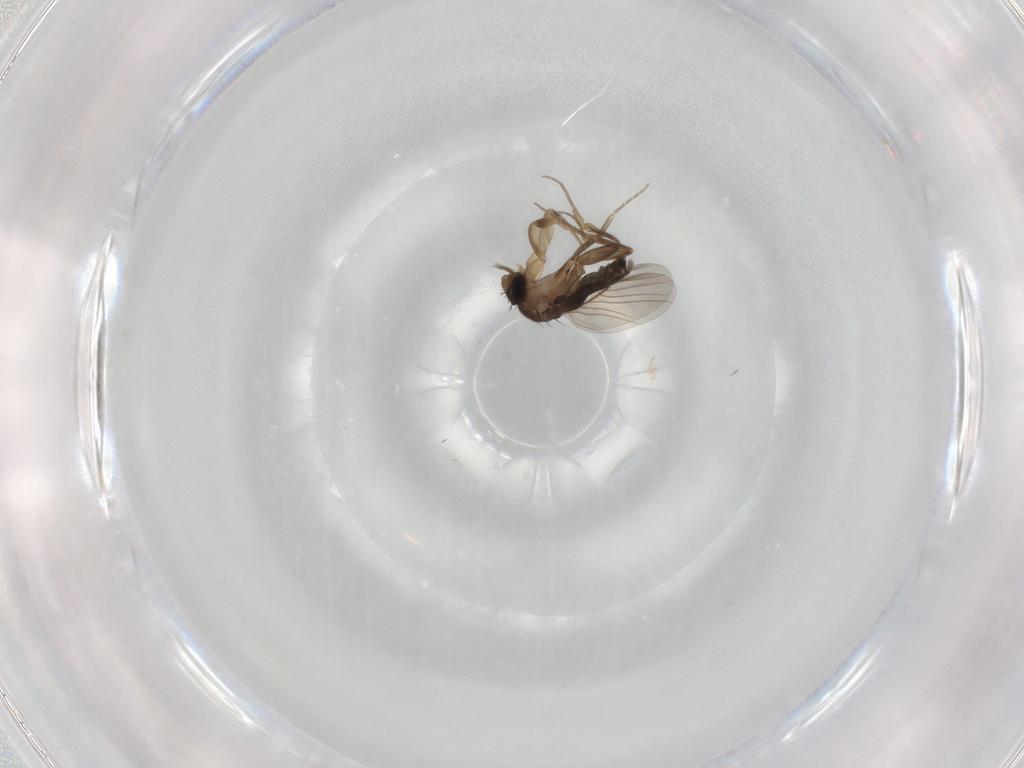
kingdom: Animalia
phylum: Arthropoda
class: Insecta
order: Diptera
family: Phoridae
